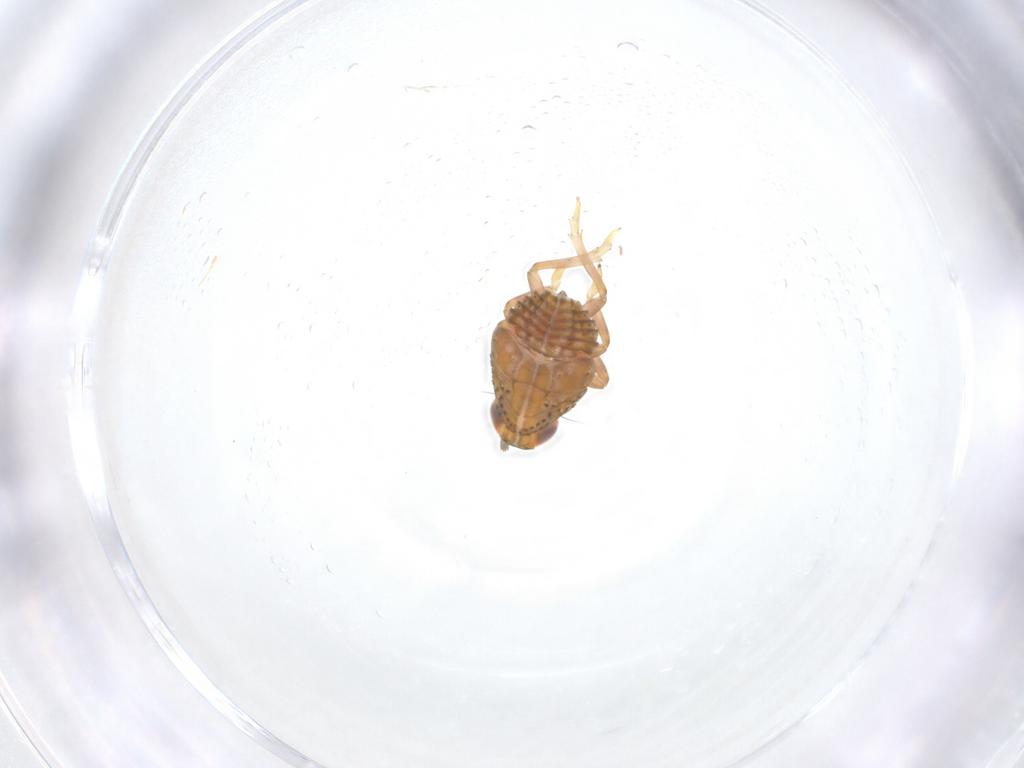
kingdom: Animalia
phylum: Arthropoda
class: Insecta
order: Hemiptera
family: Issidae
